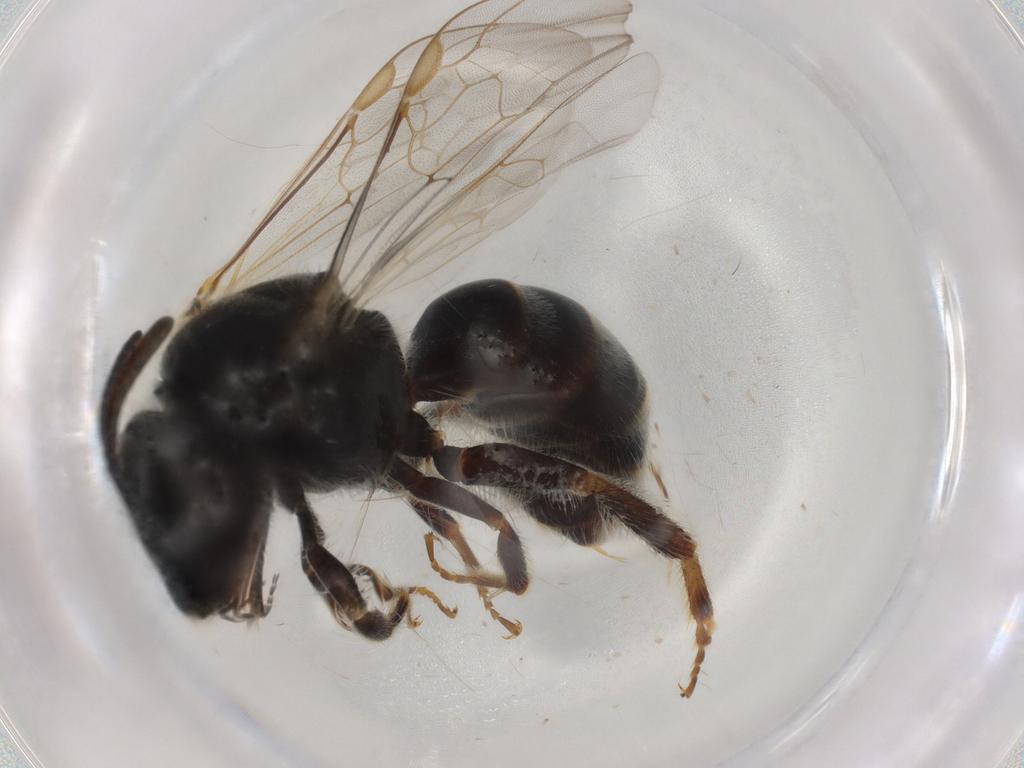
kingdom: Animalia
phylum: Arthropoda
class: Insecta
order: Hymenoptera
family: Halictidae
